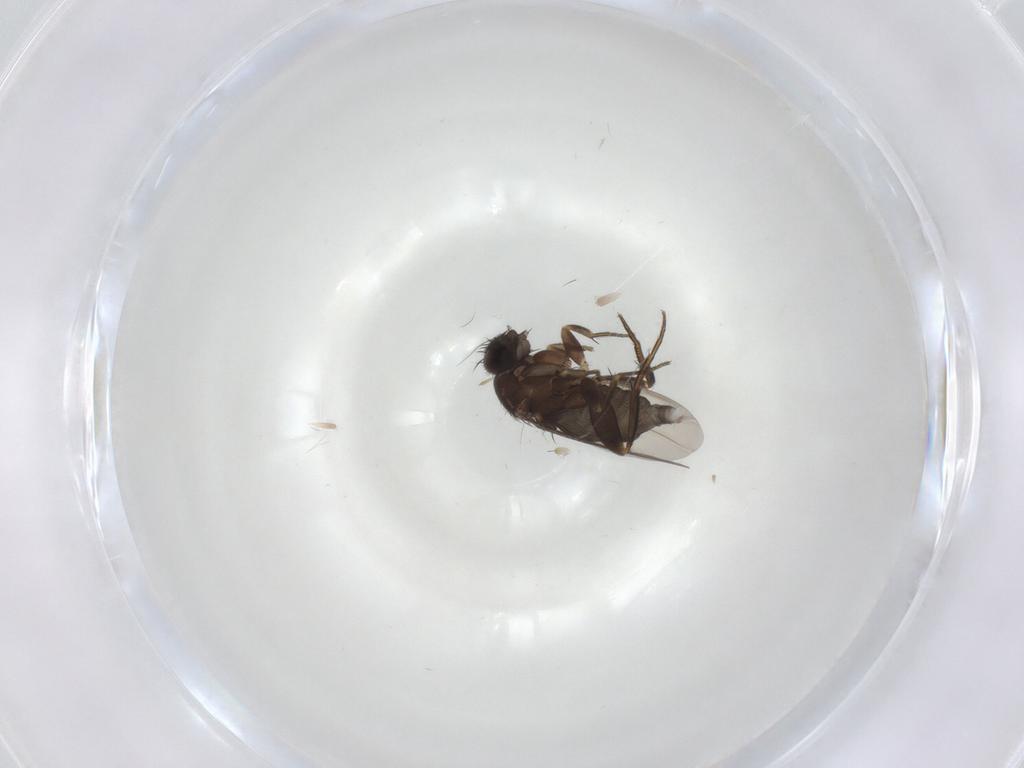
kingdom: Animalia
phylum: Arthropoda
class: Insecta
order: Diptera
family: Phoridae
